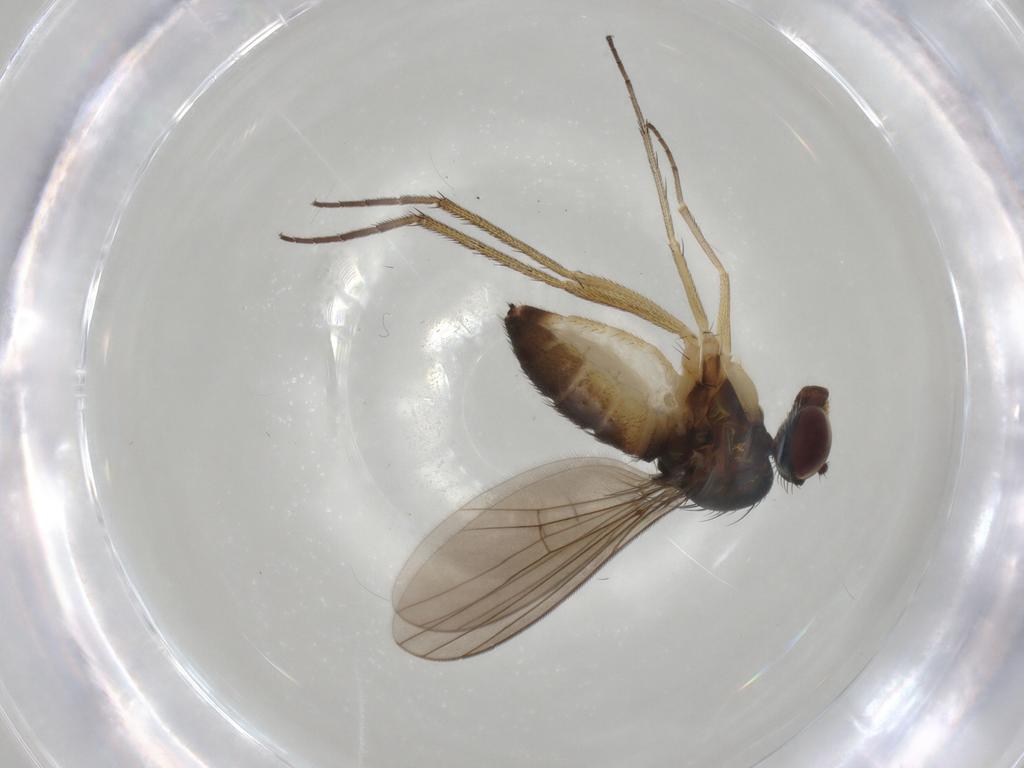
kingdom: Animalia
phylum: Arthropoda
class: Insecta
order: Diptera
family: Dolichopodidae
